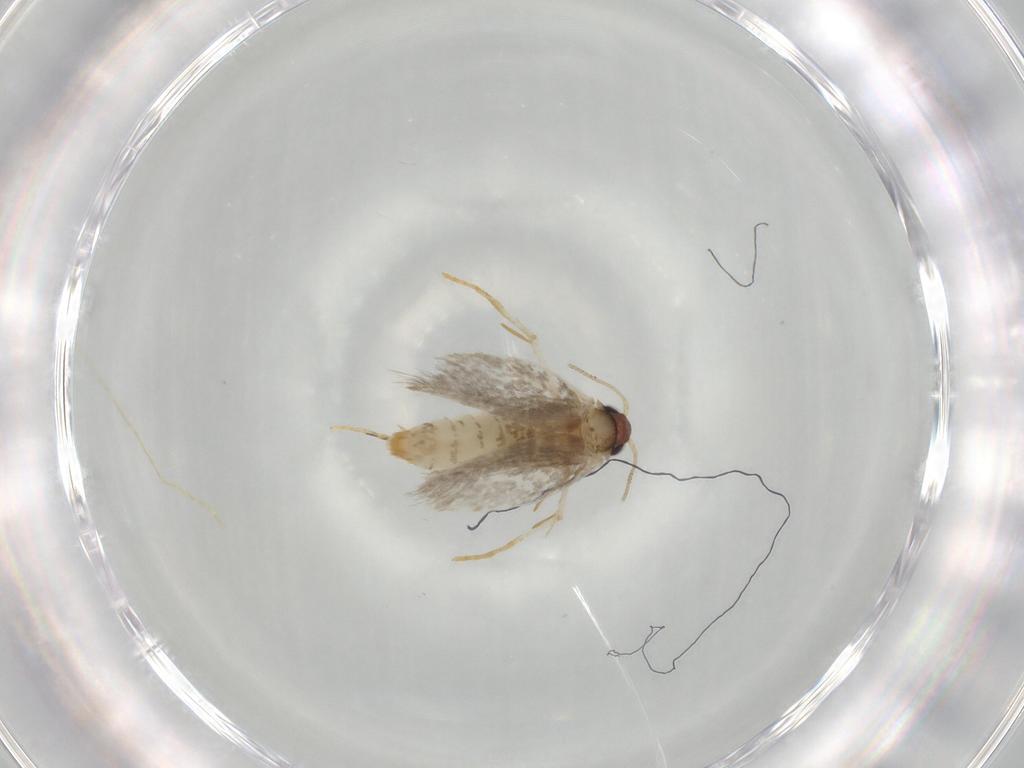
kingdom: Animalia
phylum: Arthropoda
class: Insecta
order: Lepidoptera
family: Tineidae
